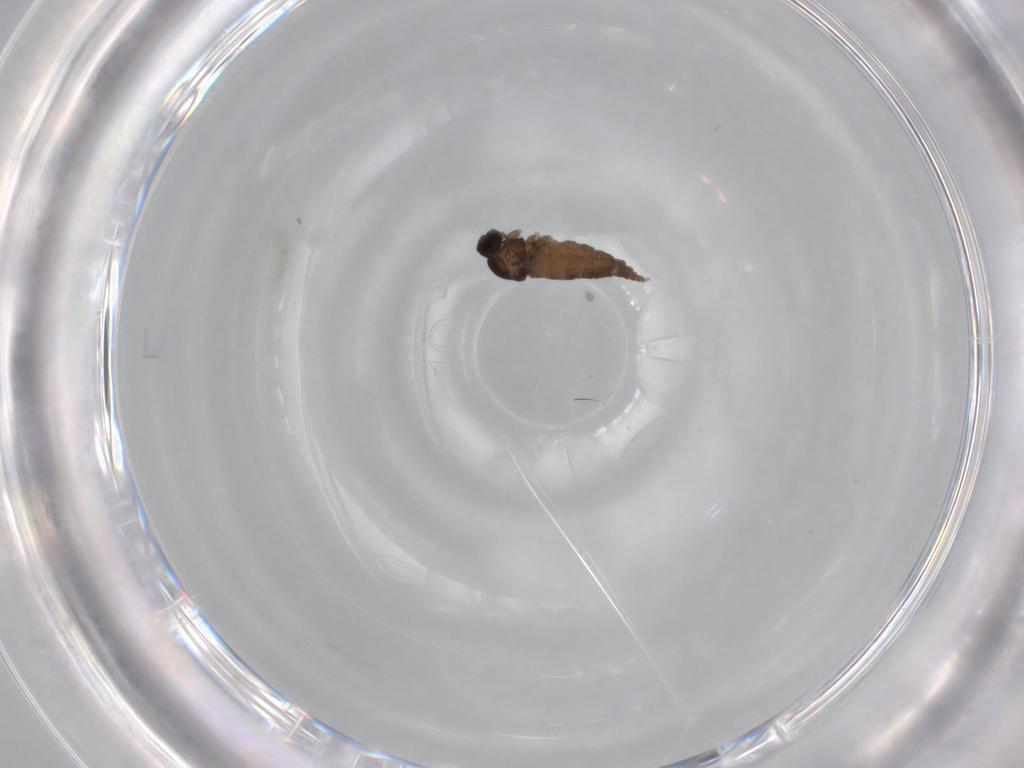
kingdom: Animalia
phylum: Arthropoda
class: Insecta
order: Diptera
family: Cecidomyiidae
